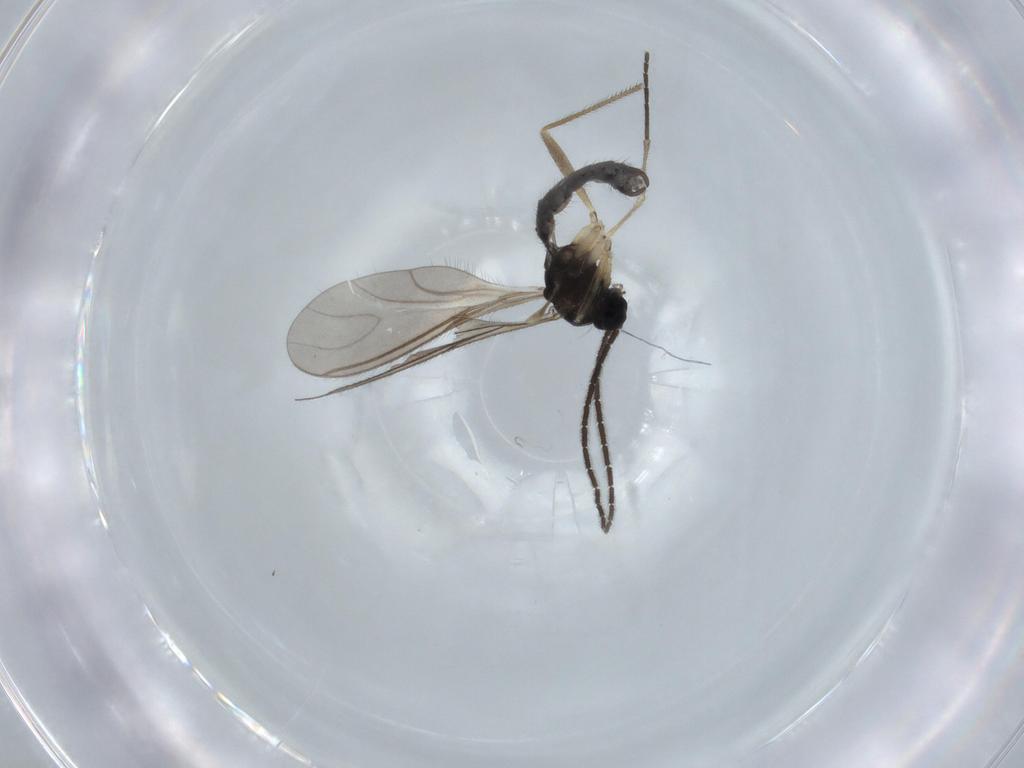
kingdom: Animalia
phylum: Arthropoda
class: Insecta
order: Diptera
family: Sciaridae
